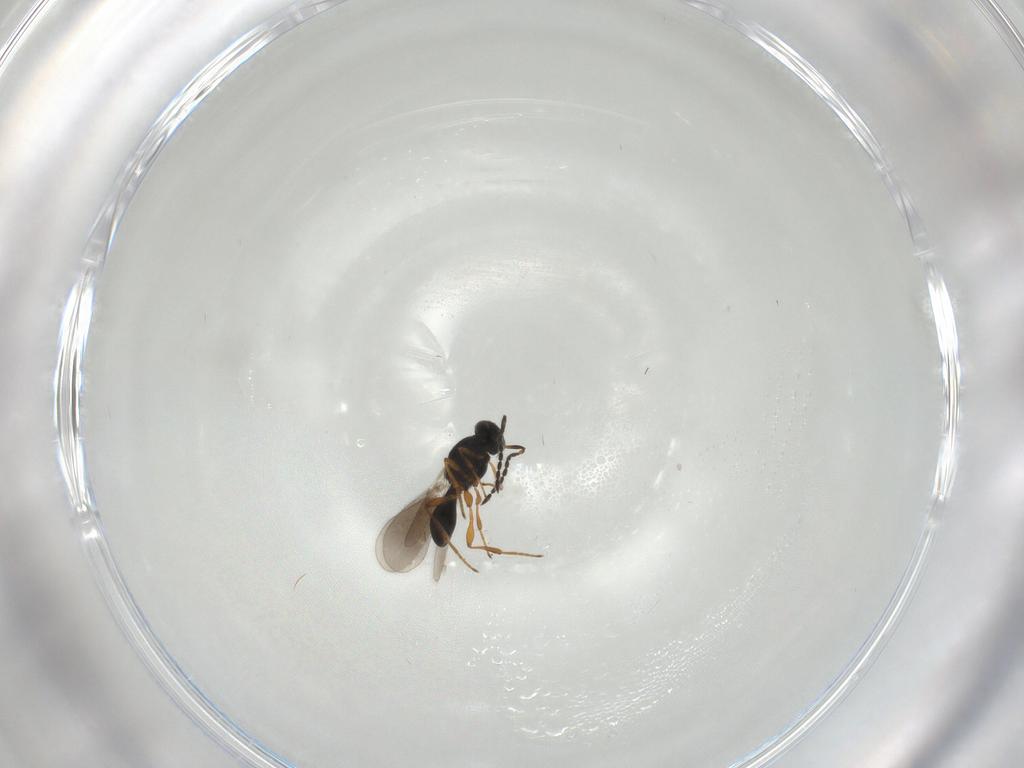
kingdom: Animalia
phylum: Arthropoda
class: Insecta
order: Hymenoptera
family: Platygastridae
